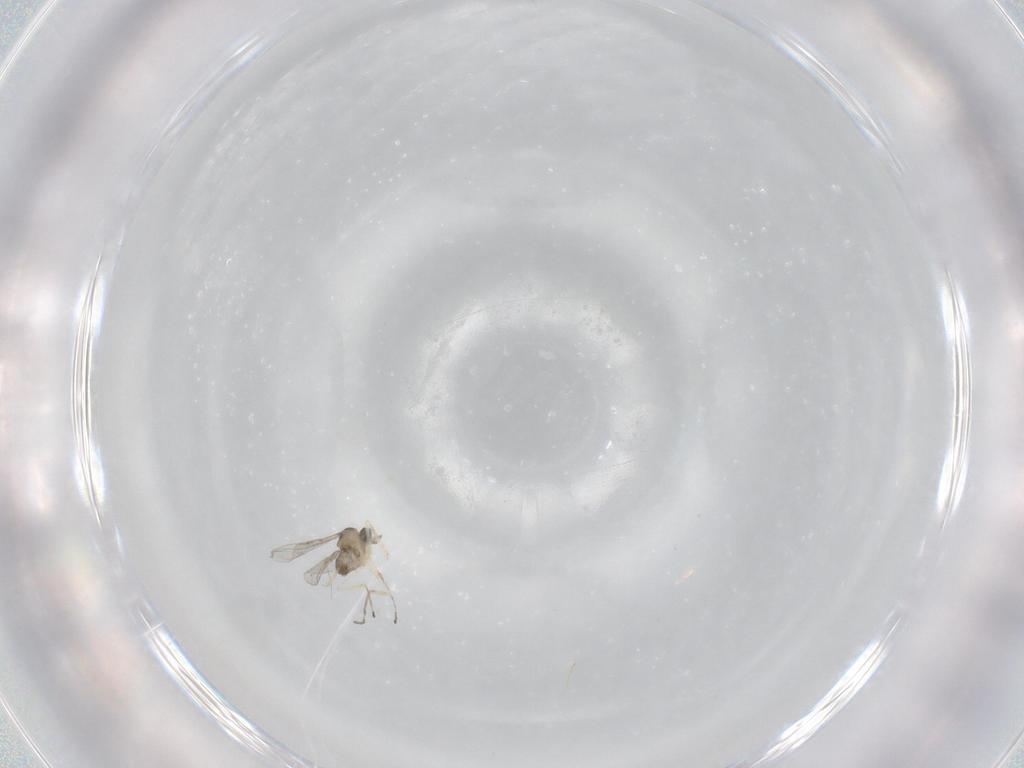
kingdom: Animalia
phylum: Arthropoda
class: Insecta
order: Diptera
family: Cecidomyiidae
